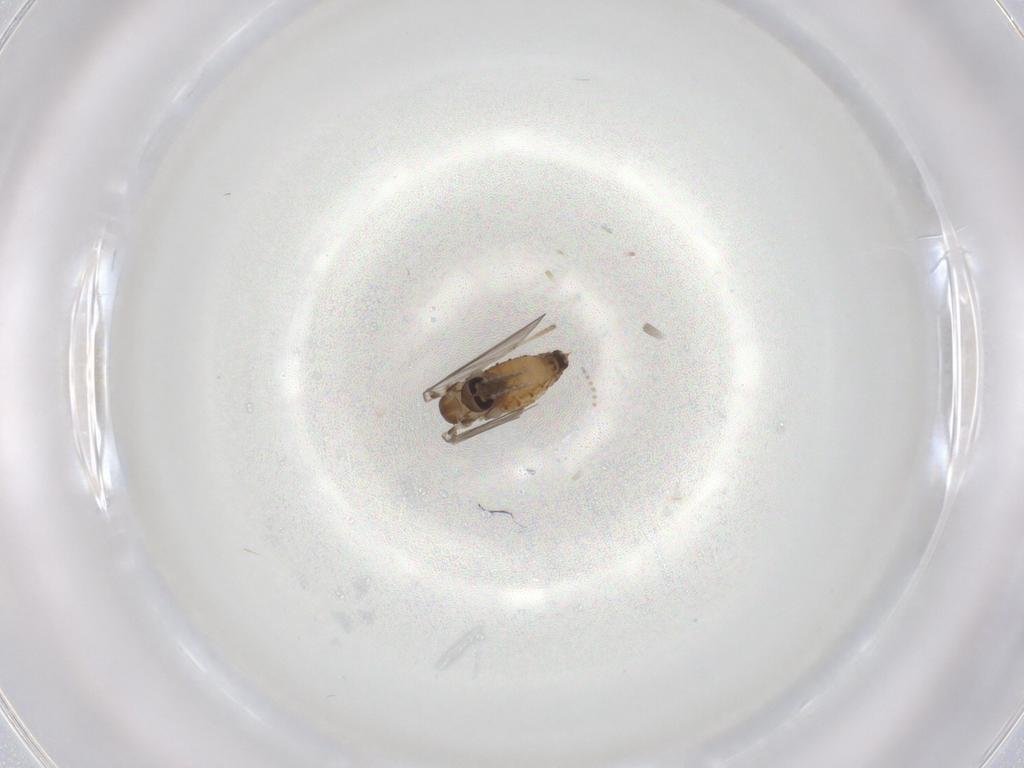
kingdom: Animalia
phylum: Arthropoda
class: Insecta
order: Diptera
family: Psychodidae
